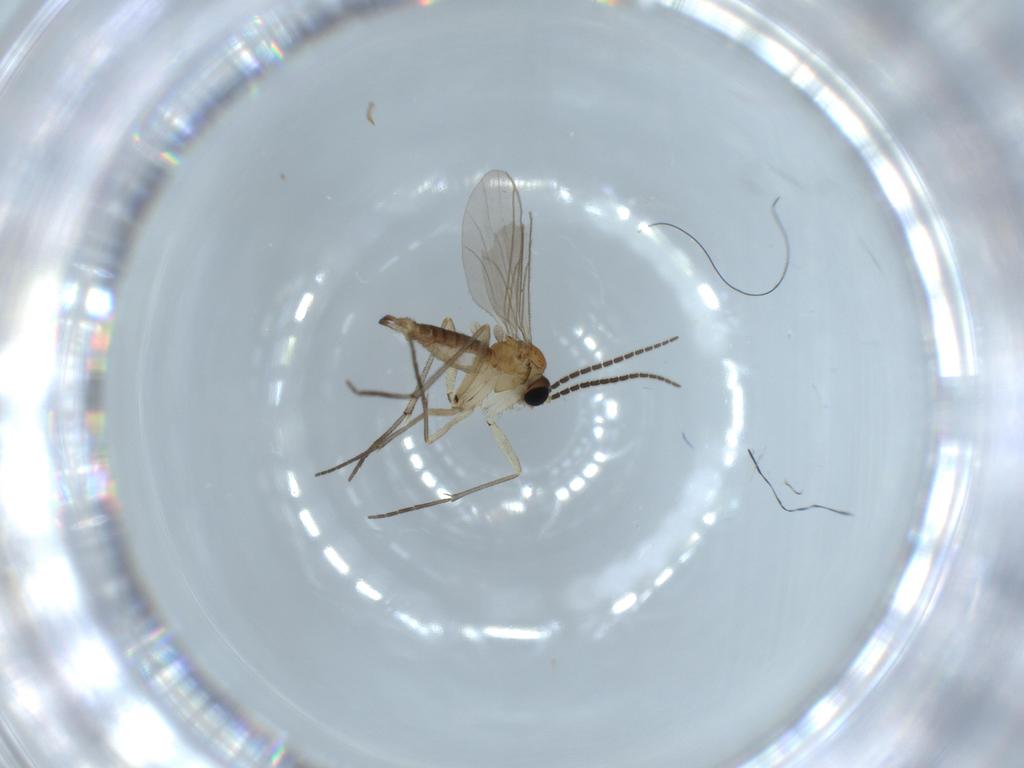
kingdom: Animalia
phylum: Arthropoda
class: Insecta
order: Diptera
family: Sciaridae
